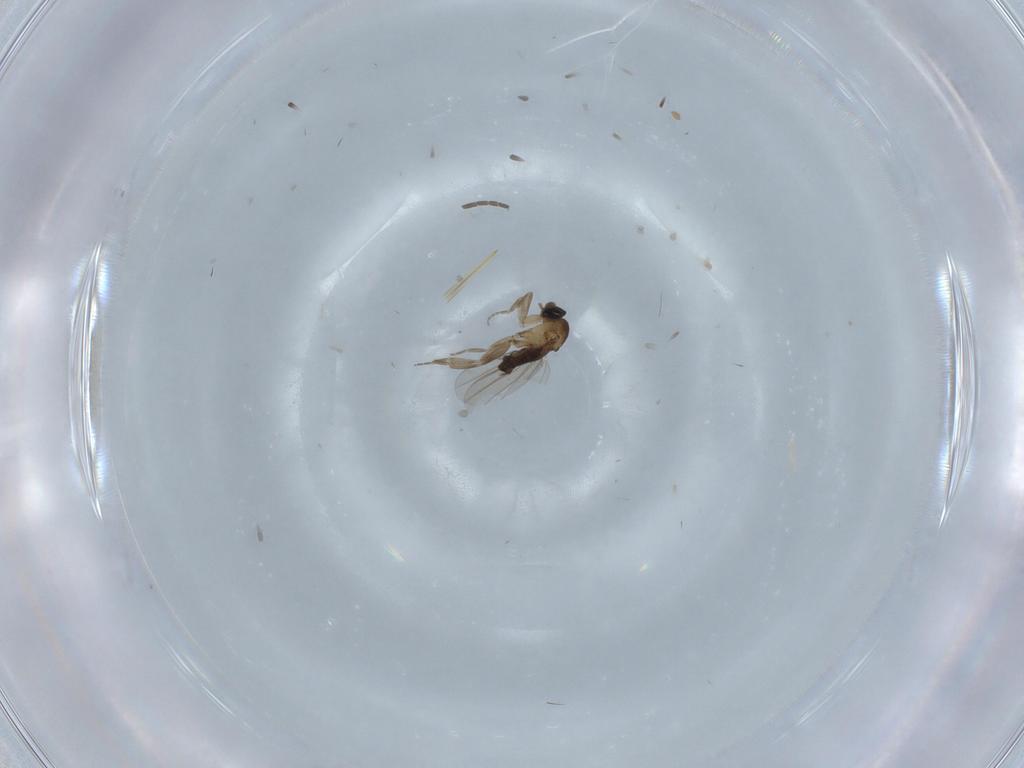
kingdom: Animalia
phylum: Arthropoda
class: Insecta
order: Diptera
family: Sciaridae
